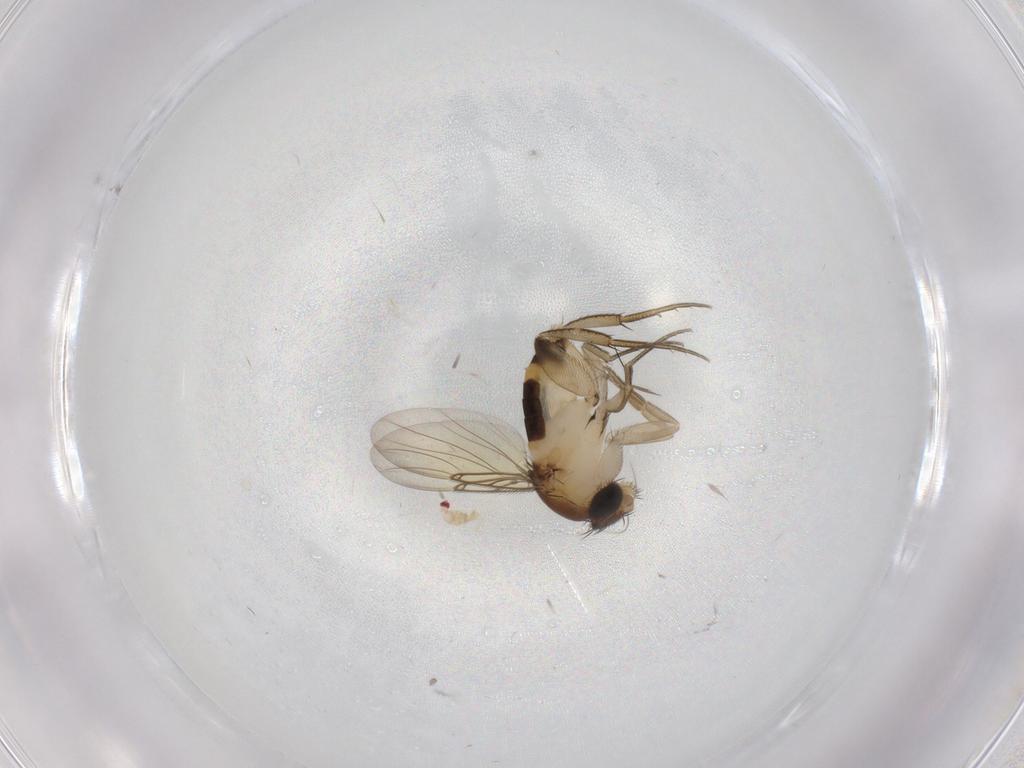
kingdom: Animalia
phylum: Arthropoda
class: Insecta
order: Diptera
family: Phoridae
